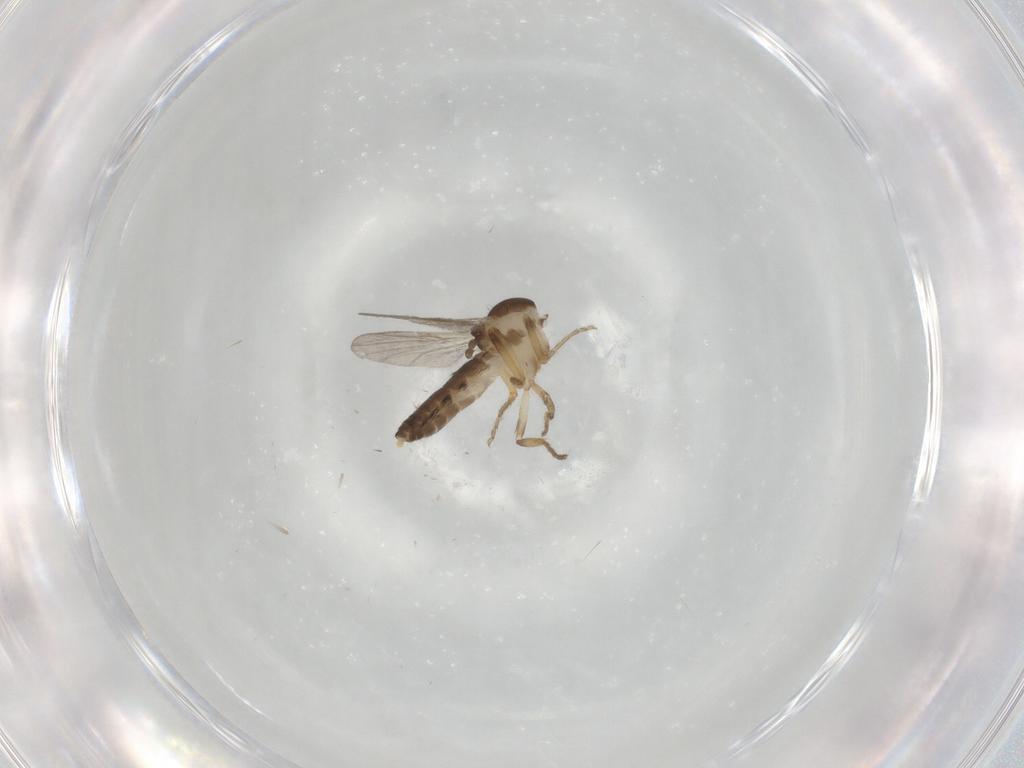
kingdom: Animalia
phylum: Arthropoda
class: Insecta
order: Diptera
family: Ceratopogonidae
